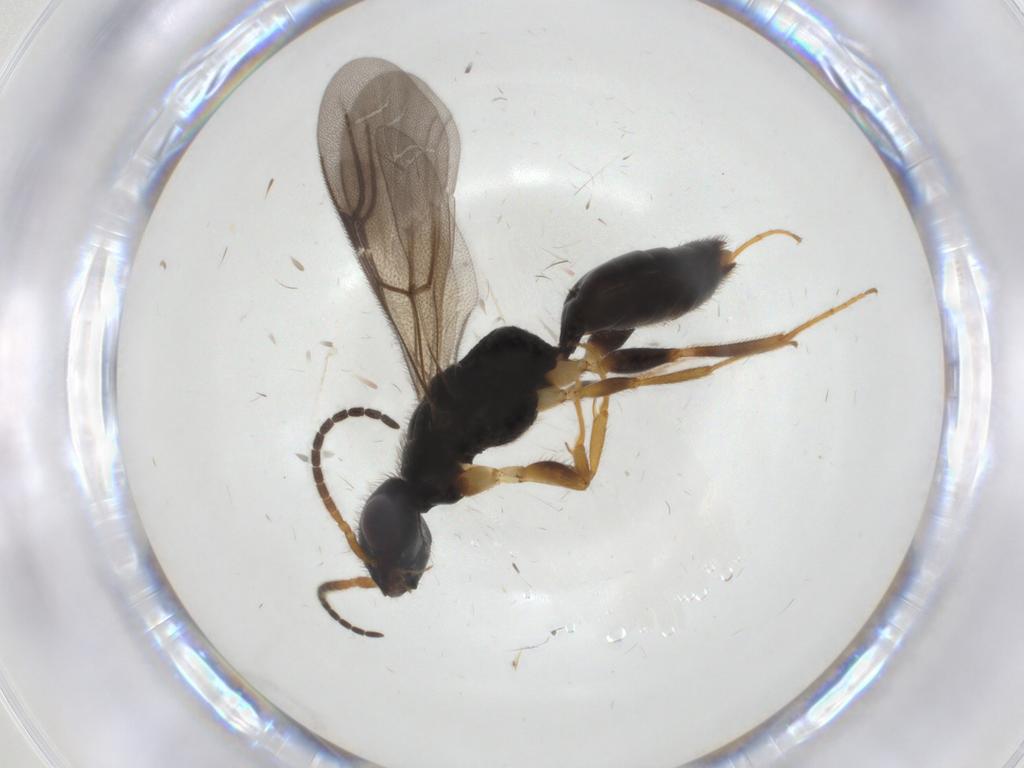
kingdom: Animalia
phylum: Arthropoda
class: Insecta
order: Hymenoptera
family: Bethylidae
